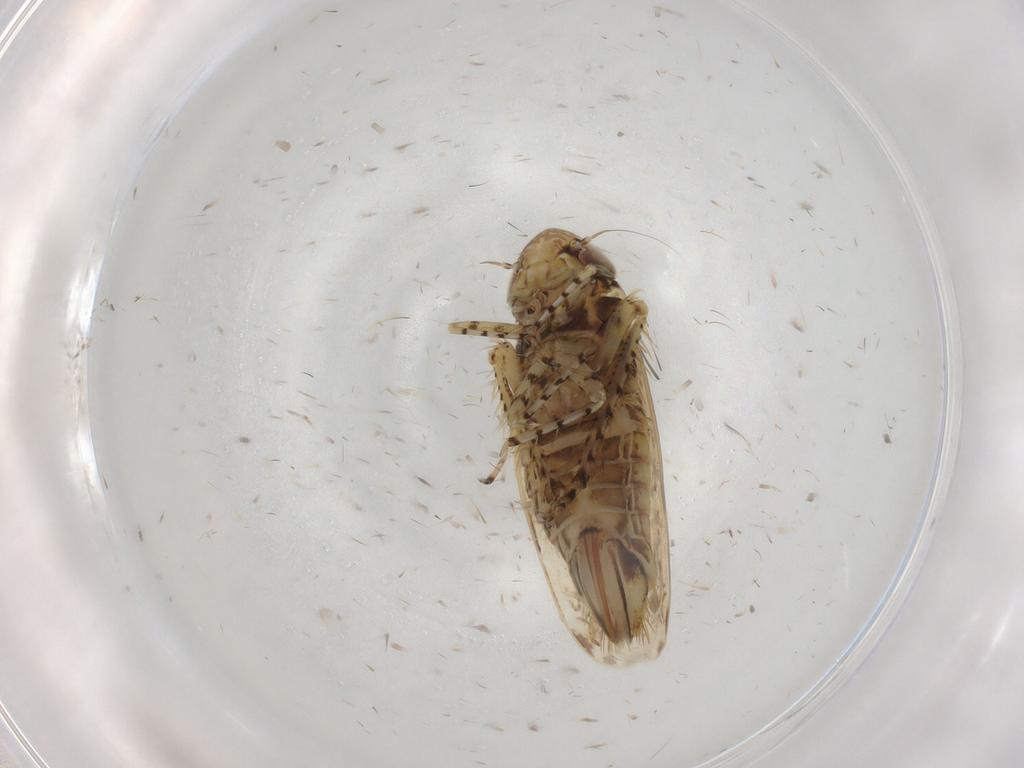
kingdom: Animalia
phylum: Arthropoda
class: Insecta
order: Hemiptera
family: Cicadellidae
